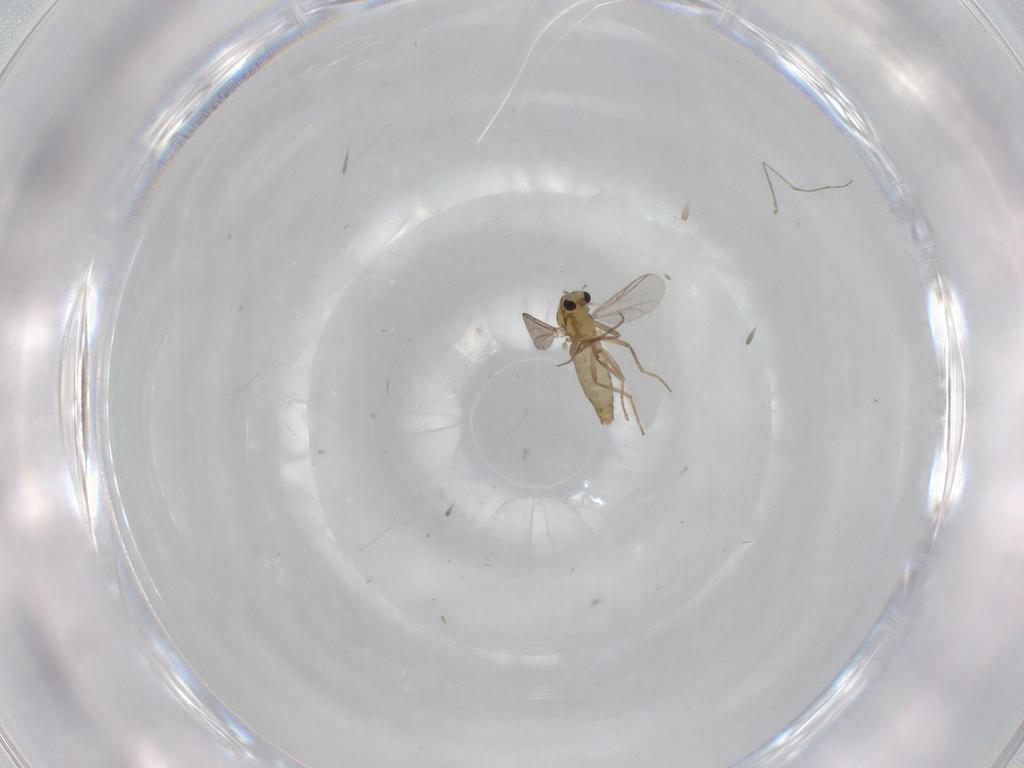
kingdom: Animalia
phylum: Arthropoda
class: Insecta
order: Diptera
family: Chironomidae
